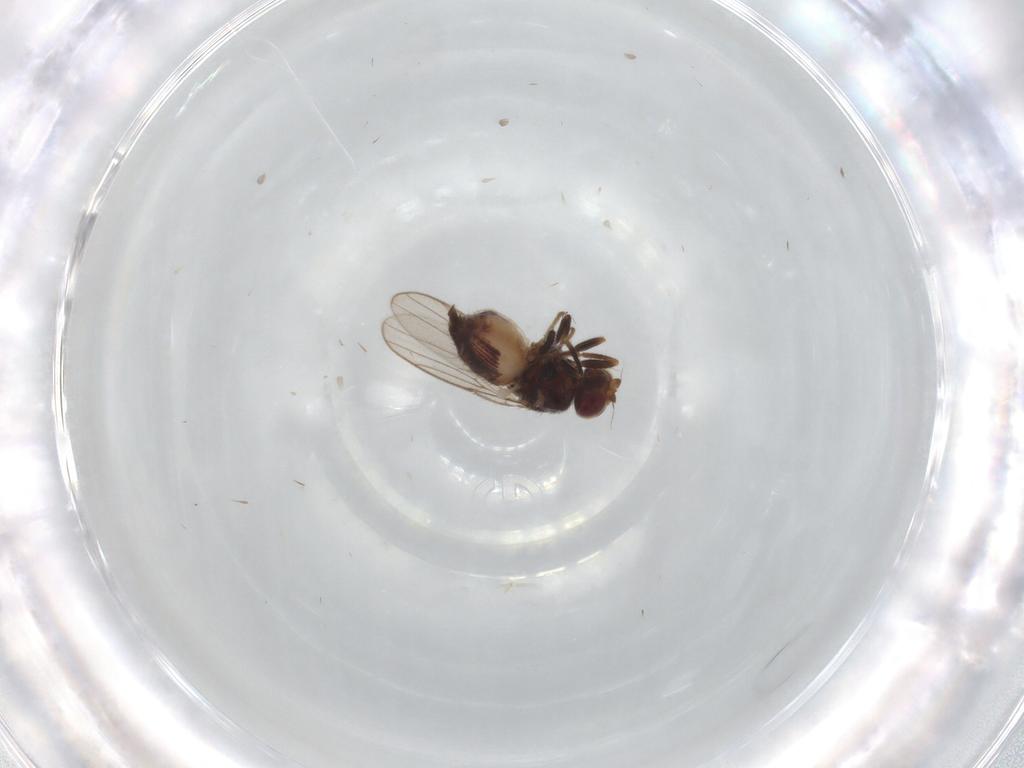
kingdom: Animalia
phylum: Arthropoda
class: Insecta
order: Diptera
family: Chloropidae
